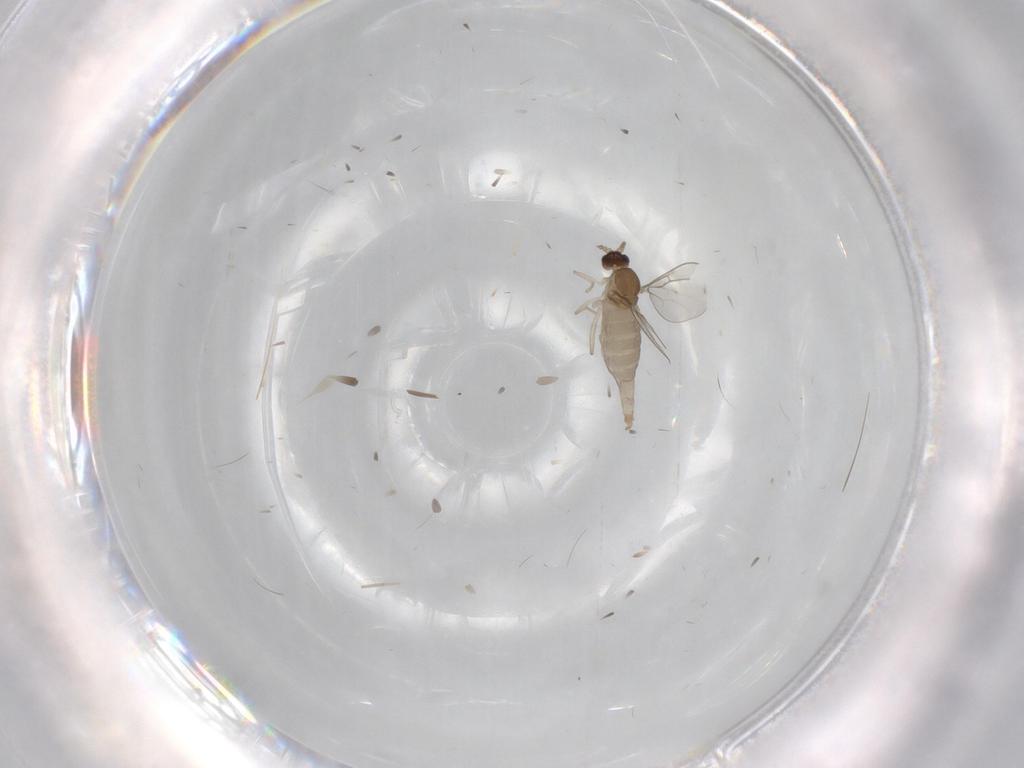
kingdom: Animalia
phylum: Arthropoda
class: Insecta
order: Diptera
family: Cecidomyiidae
